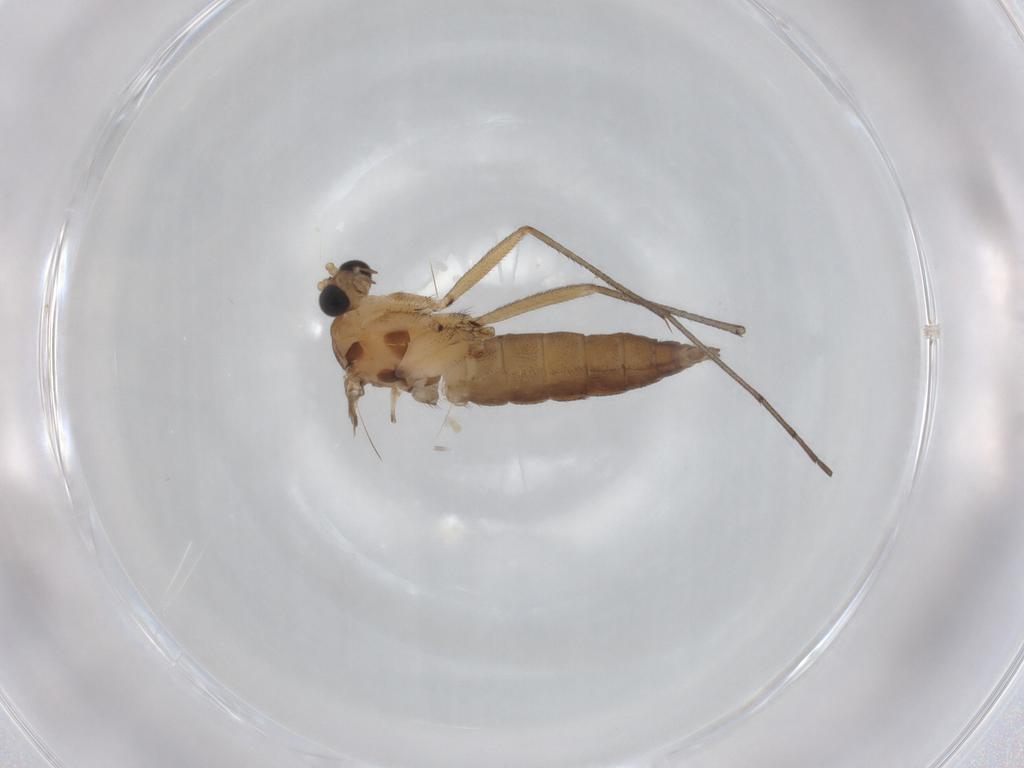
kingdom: Animalia
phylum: Arthropoda
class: Insecta
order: Diptera
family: Sciaridae
